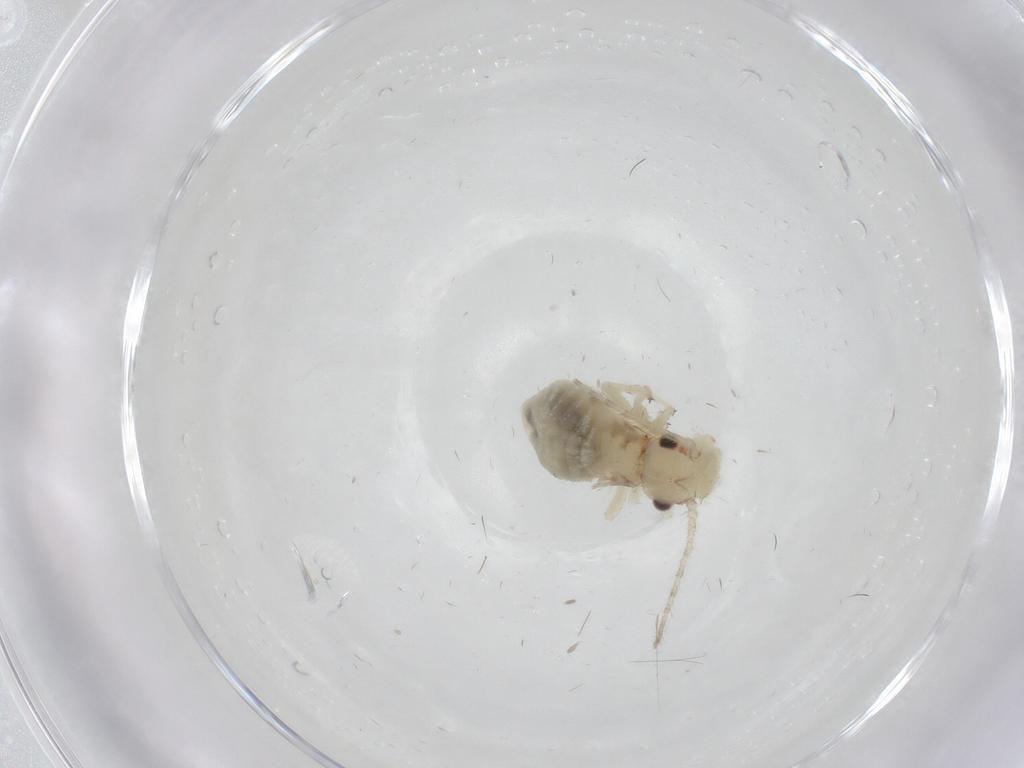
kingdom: Animalia
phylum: Arthropoda
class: Insecta
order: Psocodea
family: Amphipsocidae
